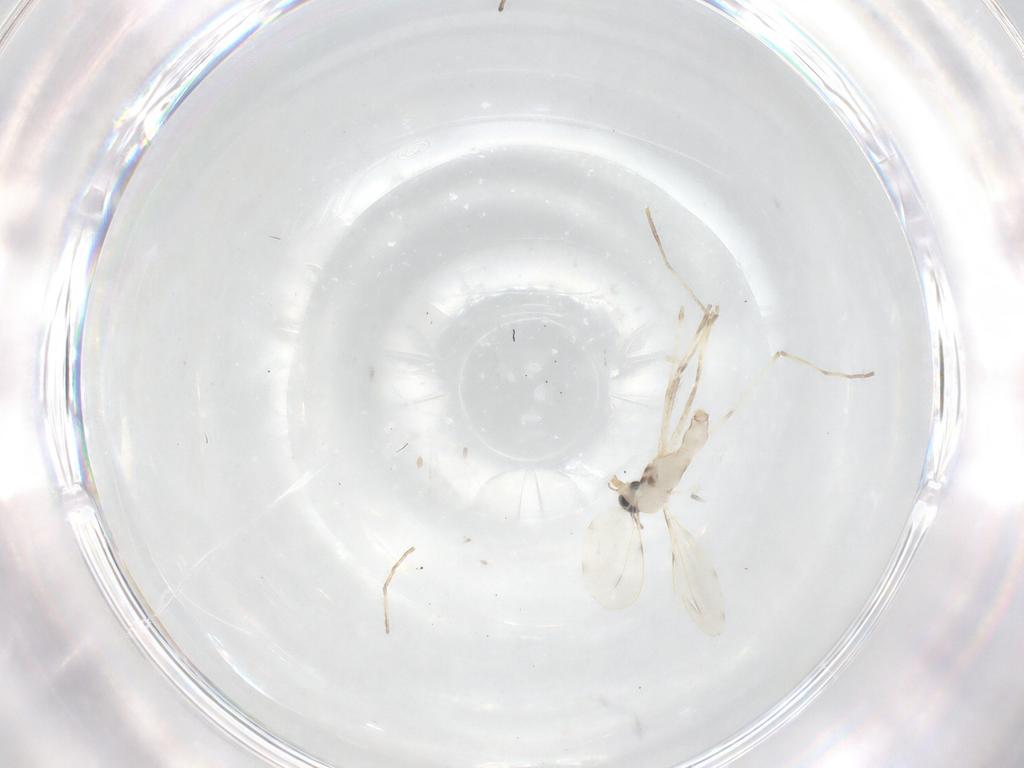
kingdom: Animalia
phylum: Arthropoda
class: Insecta
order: Diptera
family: Cecidomyiidae
